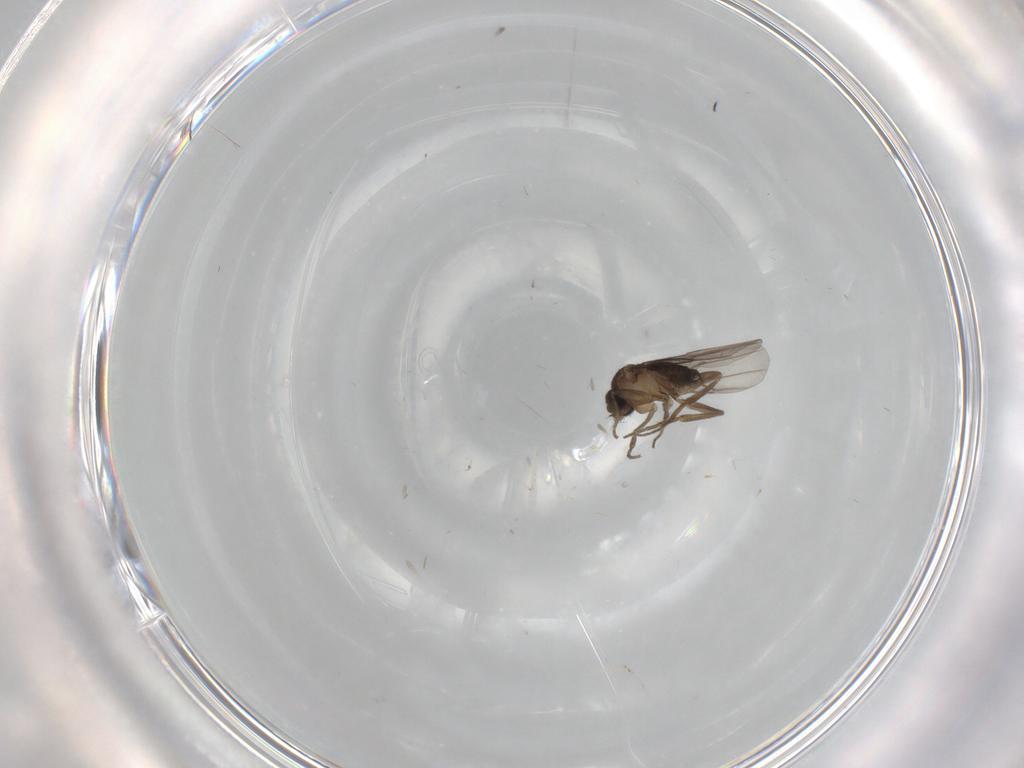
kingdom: Animalia
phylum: Arthropoda
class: Insecta
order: Diptera
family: Cecidomyiidae
